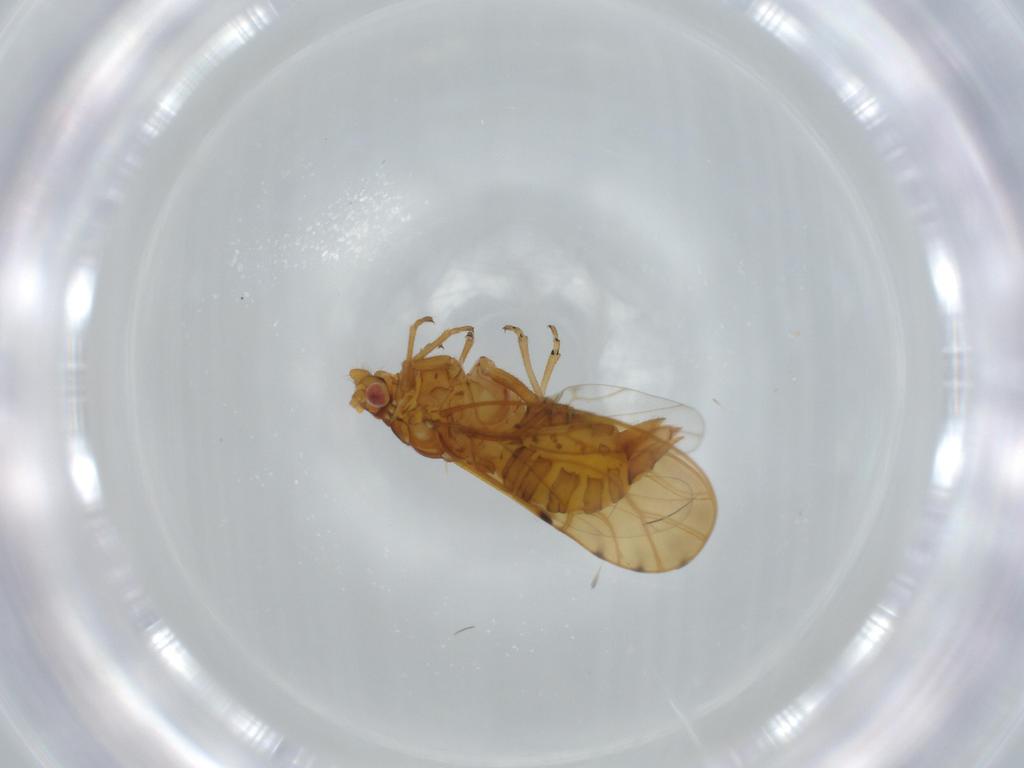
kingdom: Animalia
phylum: Arthropoda
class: Insecta
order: Hemiptera
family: Psylloidea_incertae_sedis
